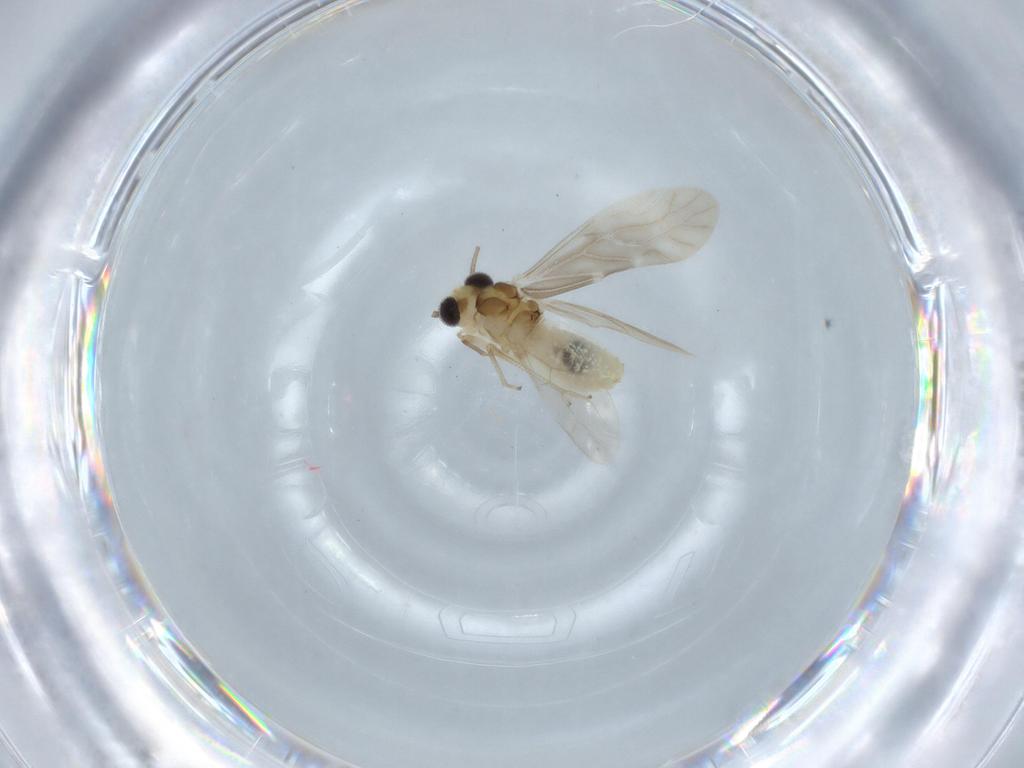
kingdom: Animalia
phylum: Arthropoda
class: Insecta
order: Psocodea
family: Caeciliusidae
